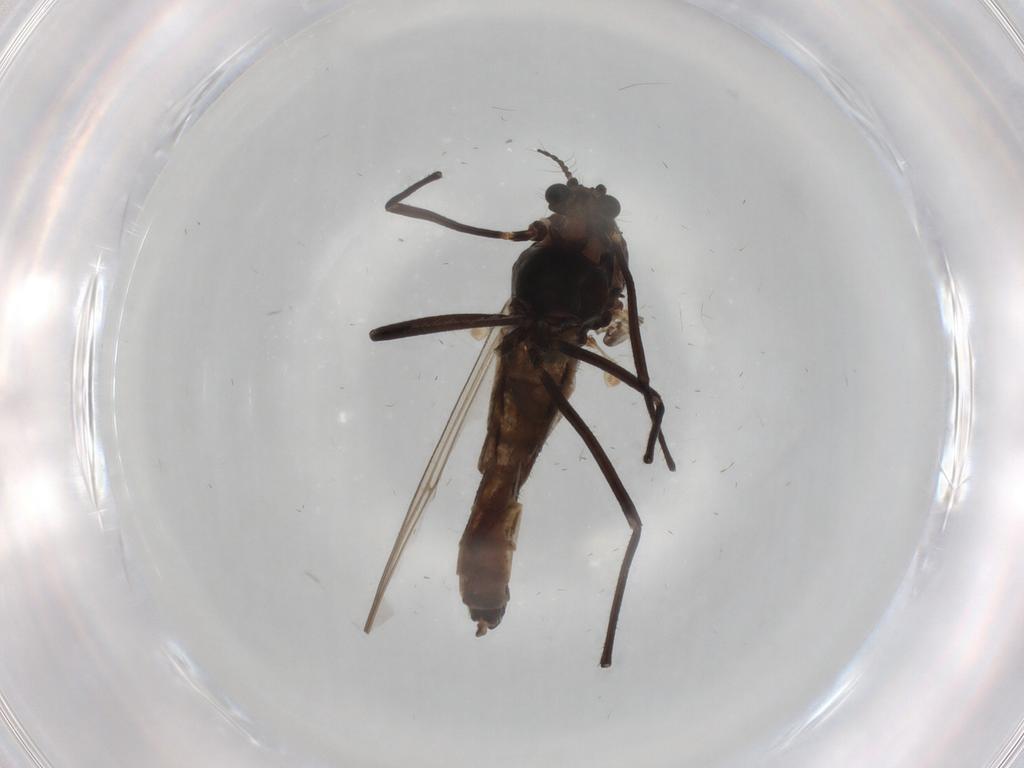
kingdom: Animalia
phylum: Arthropoda
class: Insecta
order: Diptera
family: Chironomidae
